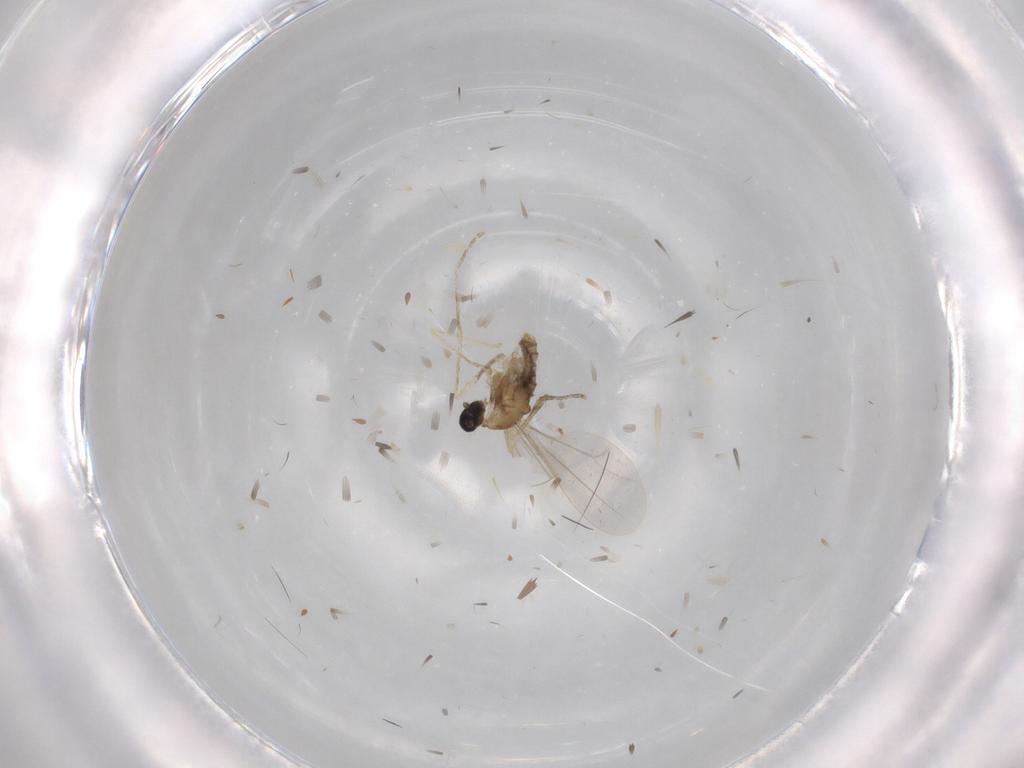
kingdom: Animalia
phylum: Arthropoda
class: Insecta
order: Diptera
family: Cecidomyiidae
